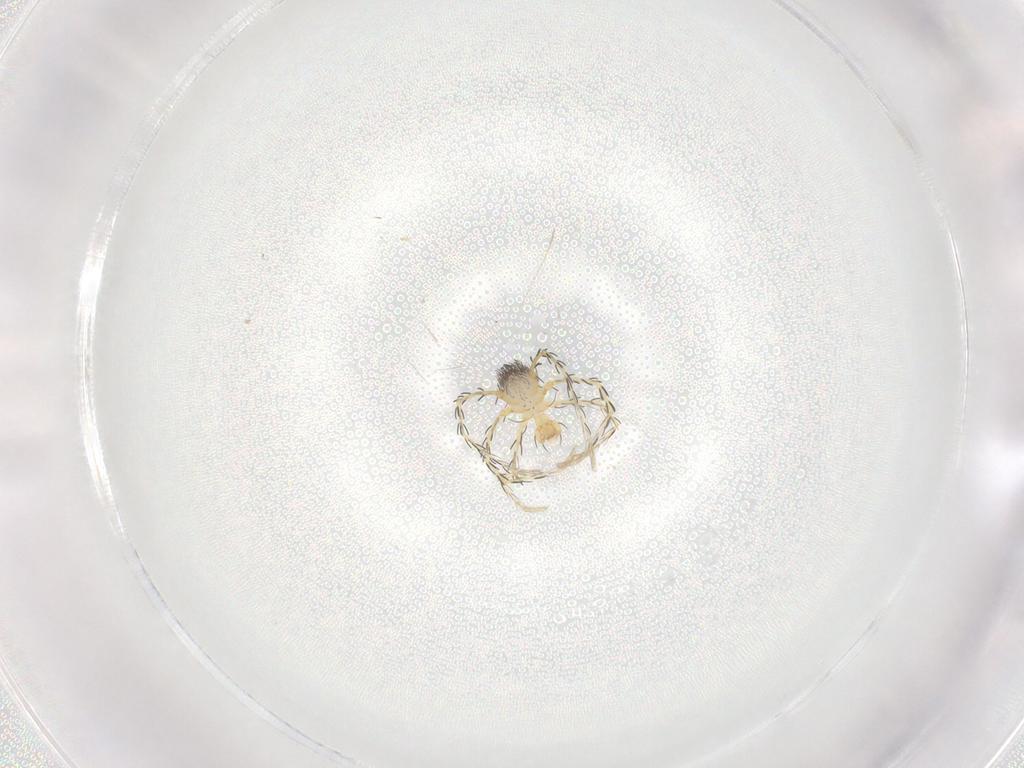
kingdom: Animalia
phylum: Arthropoda
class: Arachnida
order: Trombidiformes
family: Erythraeidae
